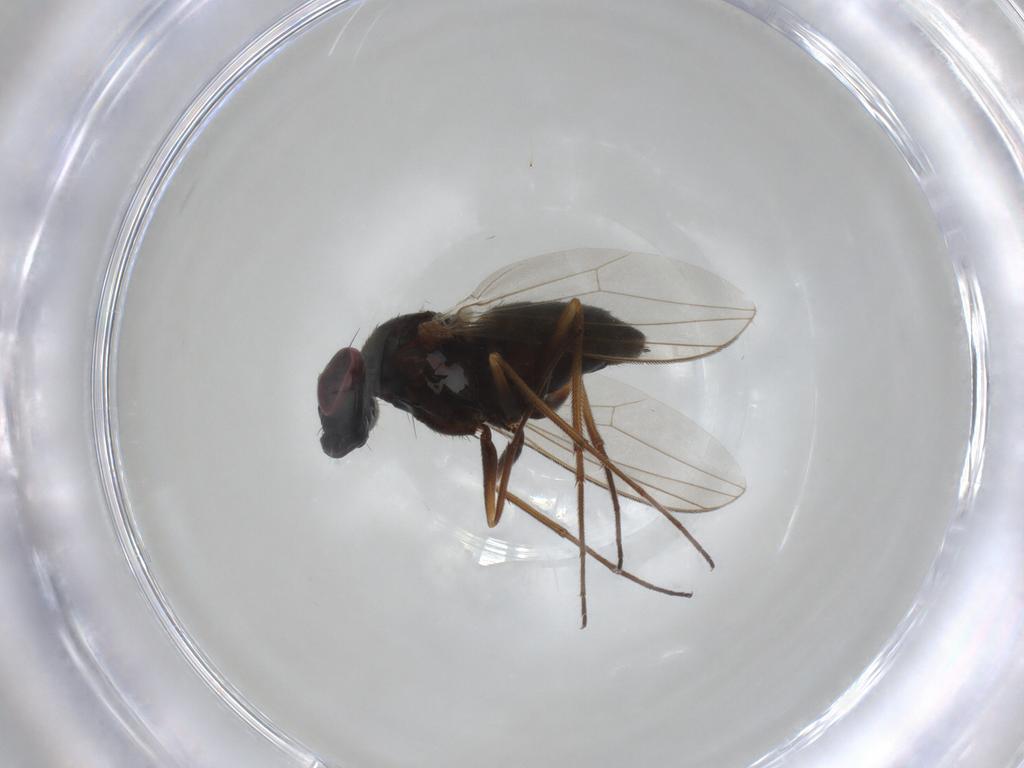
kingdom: Animalia
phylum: Arthropoda
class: Insecta
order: Diptera
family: Dolichopodidae
